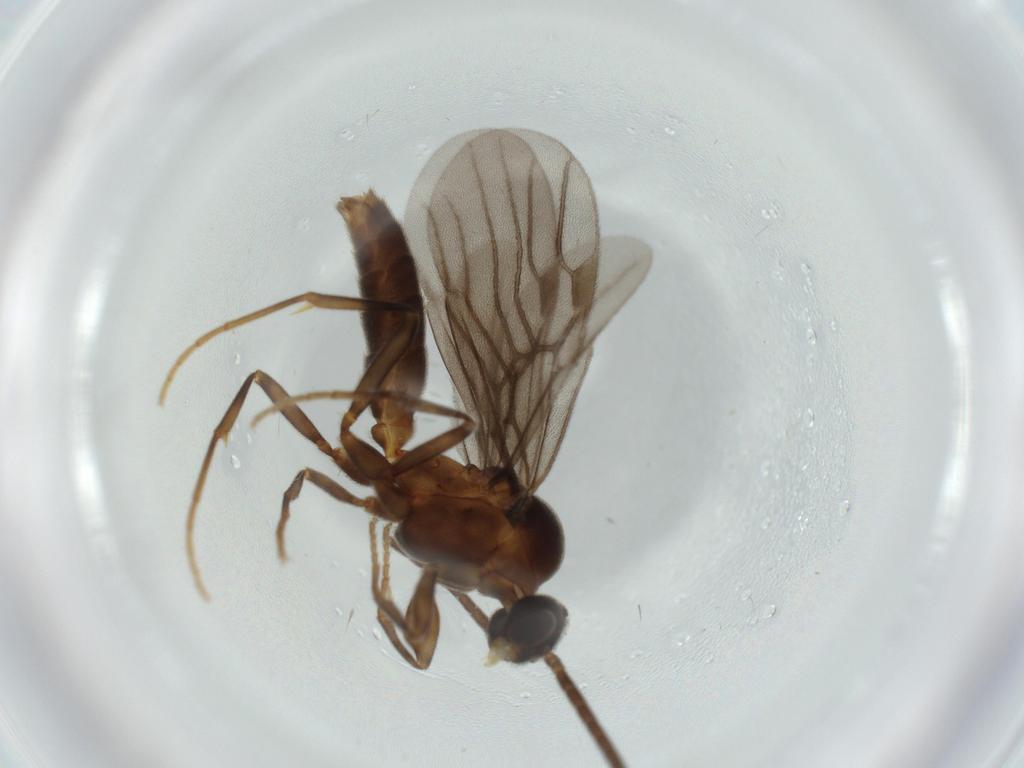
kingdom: Animalia
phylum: Arthropoda
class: Insecta
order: Hymenoptera
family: Formicidae
